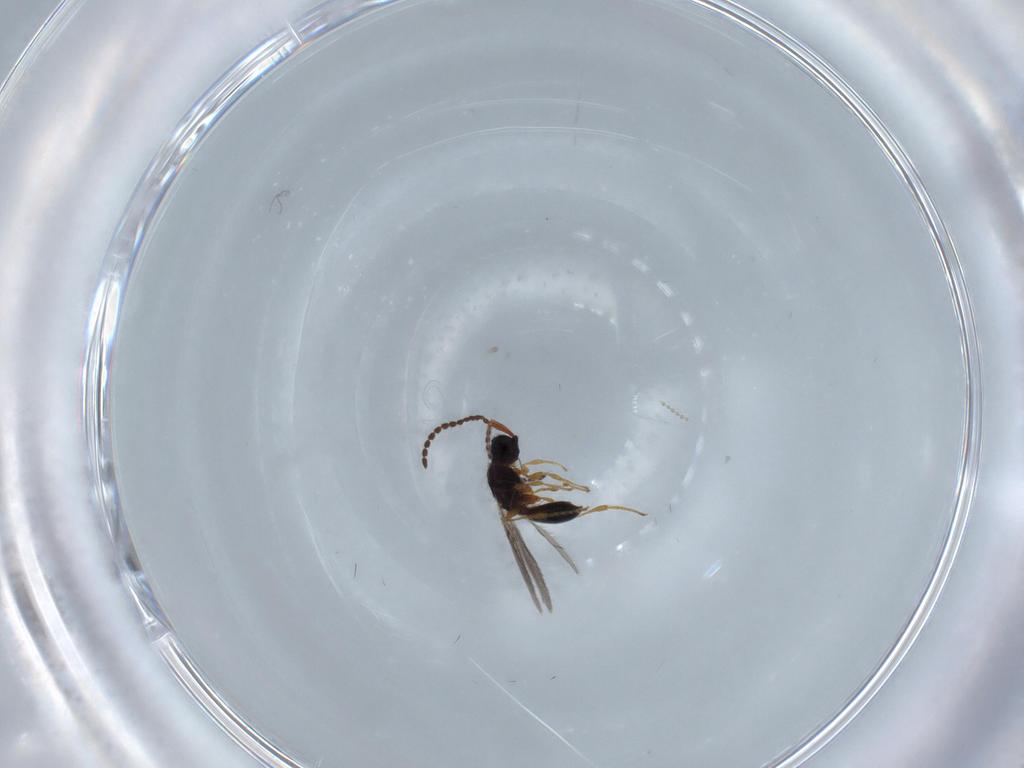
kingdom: Animalia
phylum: Arthropoda
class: Insecta
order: Hymenoptera
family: Diapriidae
